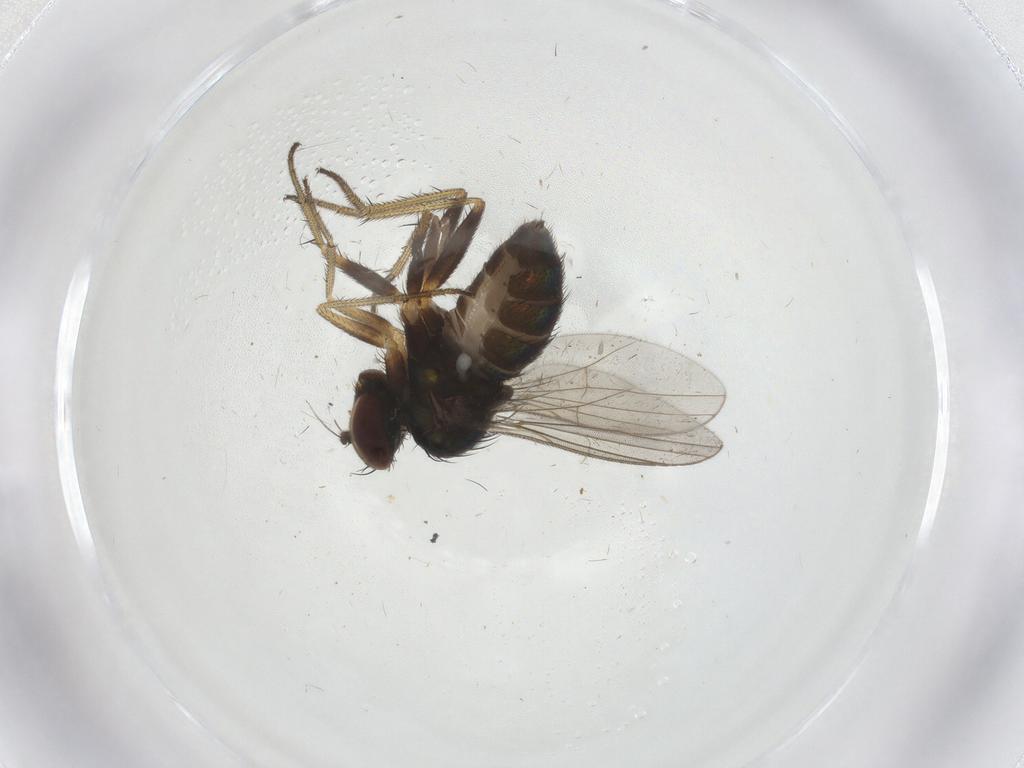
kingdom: Animalia
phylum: Arthropoda
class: Insecta
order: Diptera
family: Dolichopodidae
